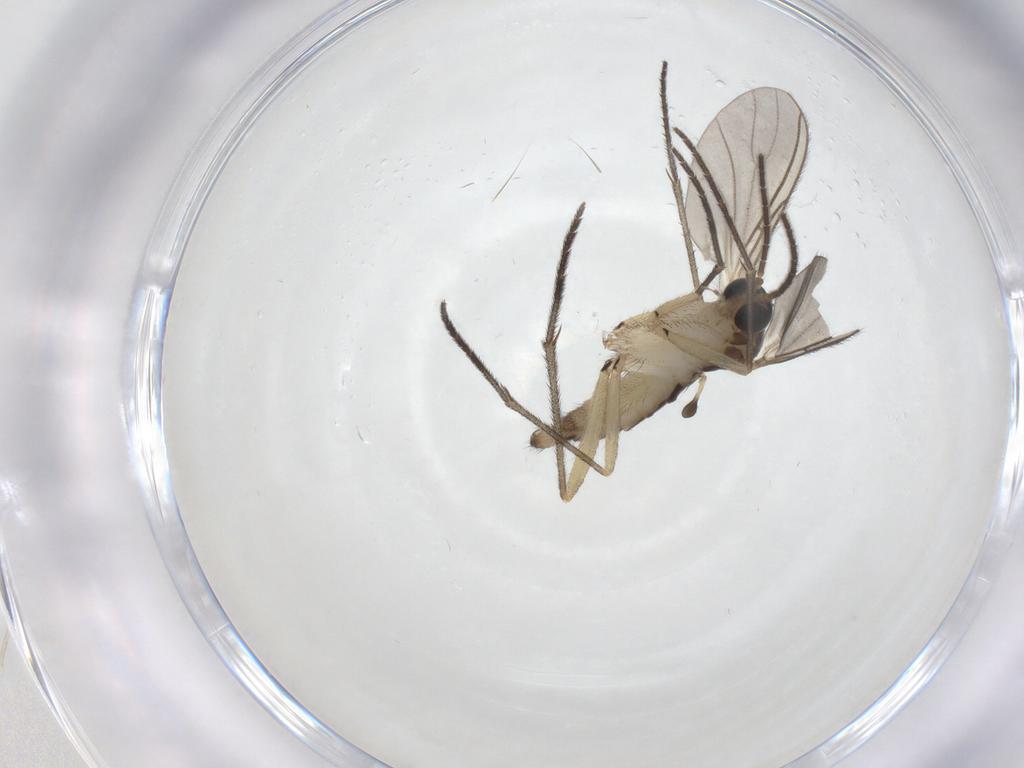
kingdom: Animalia
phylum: Arthropoda
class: Insecta
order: Diptera
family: Sciaridae
